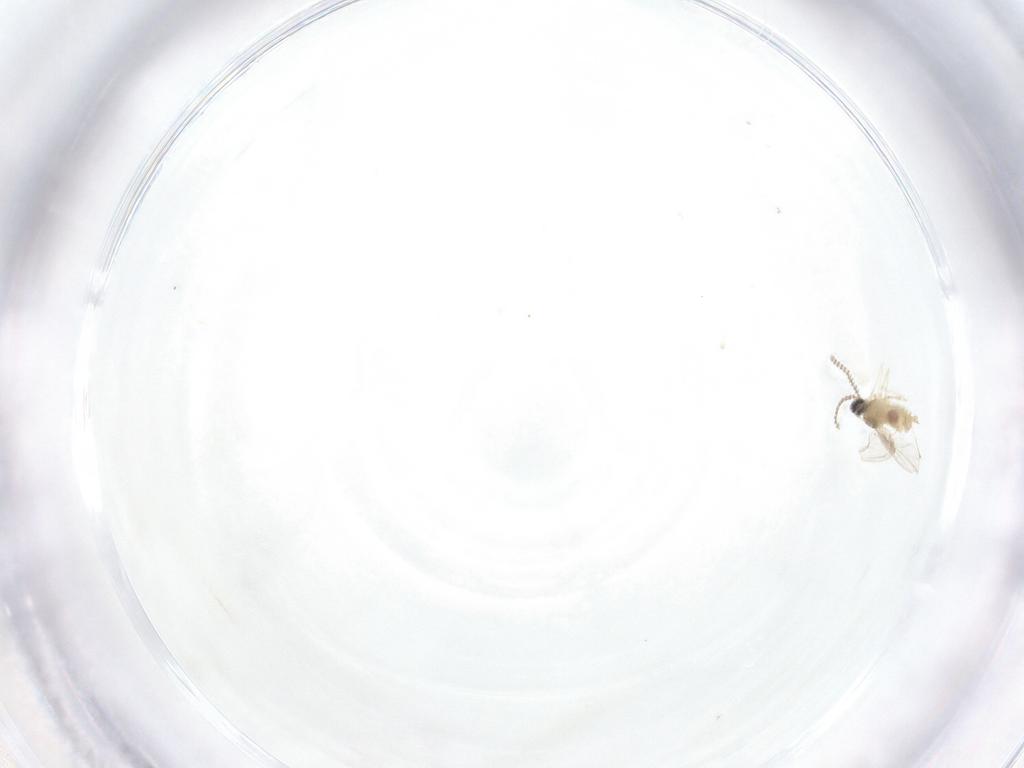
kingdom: Animalia
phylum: Arthropoda
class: Insecta
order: Diptera
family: Cecidomyiidae
